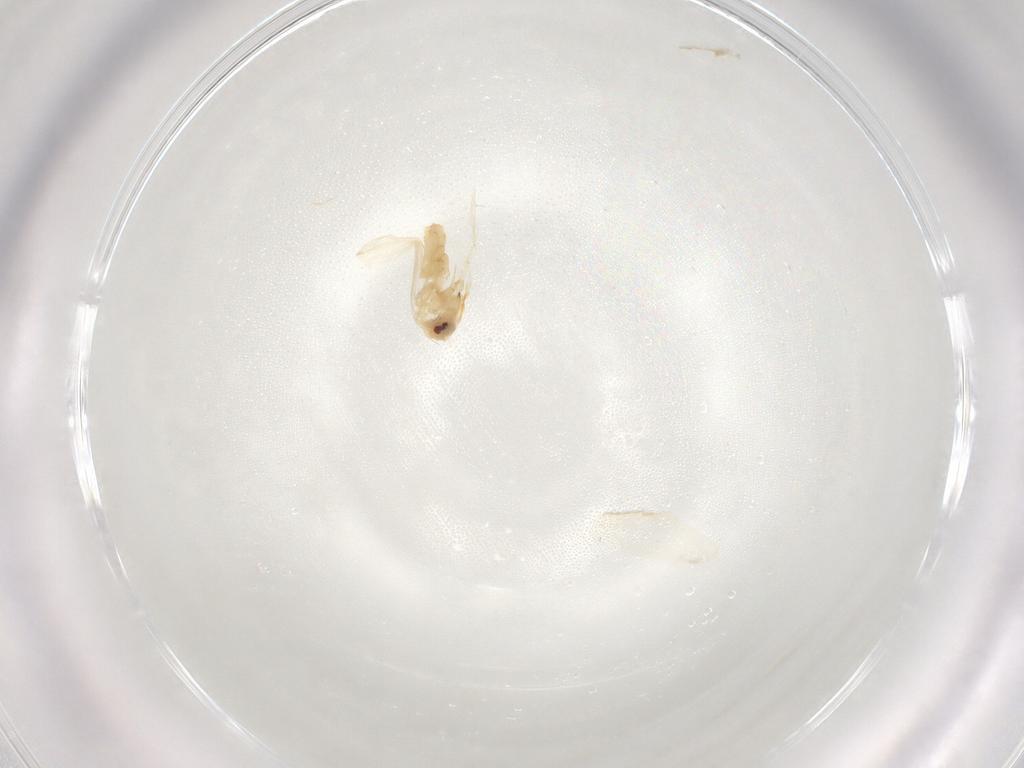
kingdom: Animalia
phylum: Arthropoda
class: Insecta
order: Hemiptera
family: Aleyrodidae
